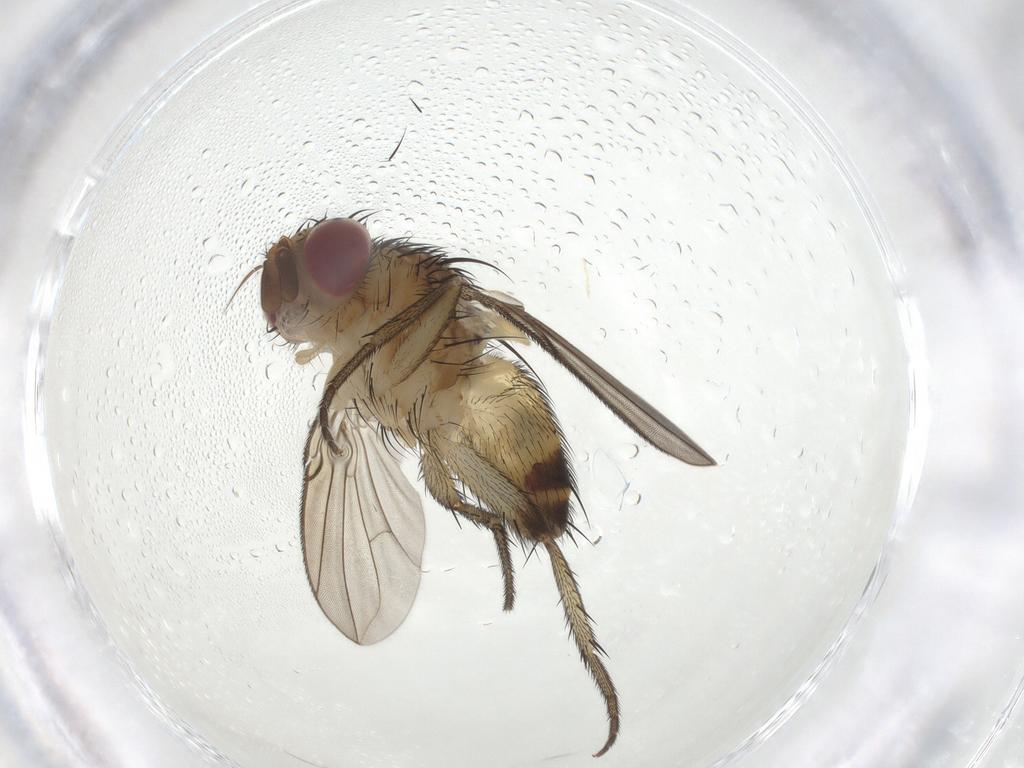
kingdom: Animalia
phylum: Arthropoda
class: Insecta
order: Diptera
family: Tachinidae
